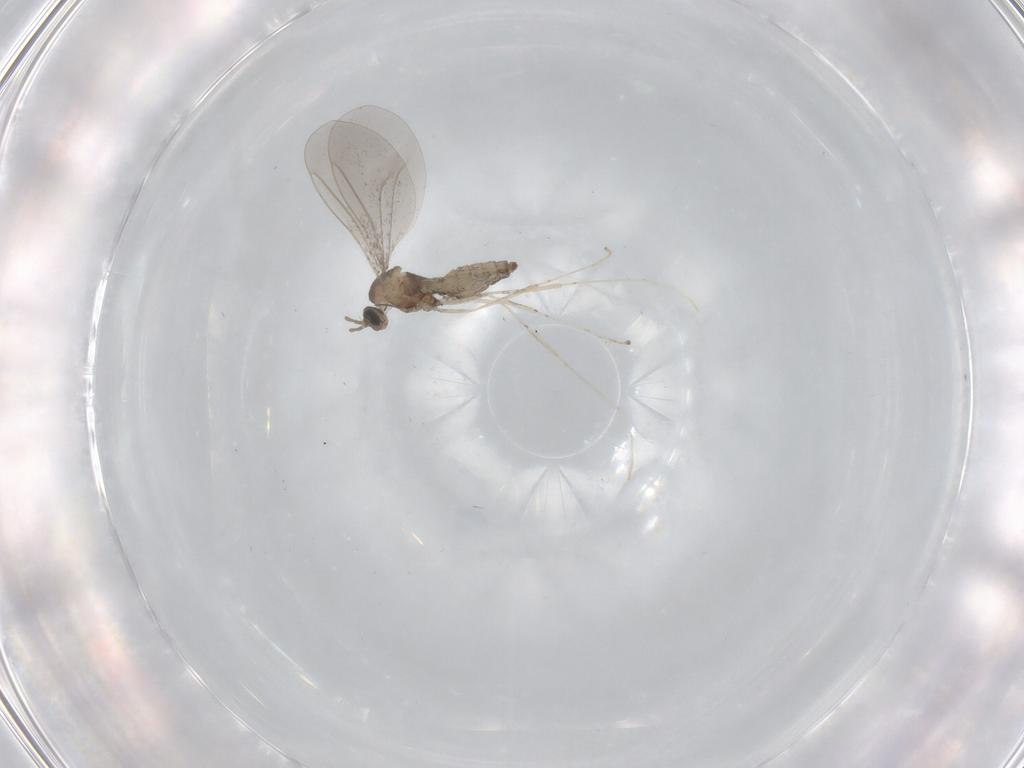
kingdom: Animalia
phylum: Arthropoda
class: Insecta
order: Diptera
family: Cecidomyiidae
